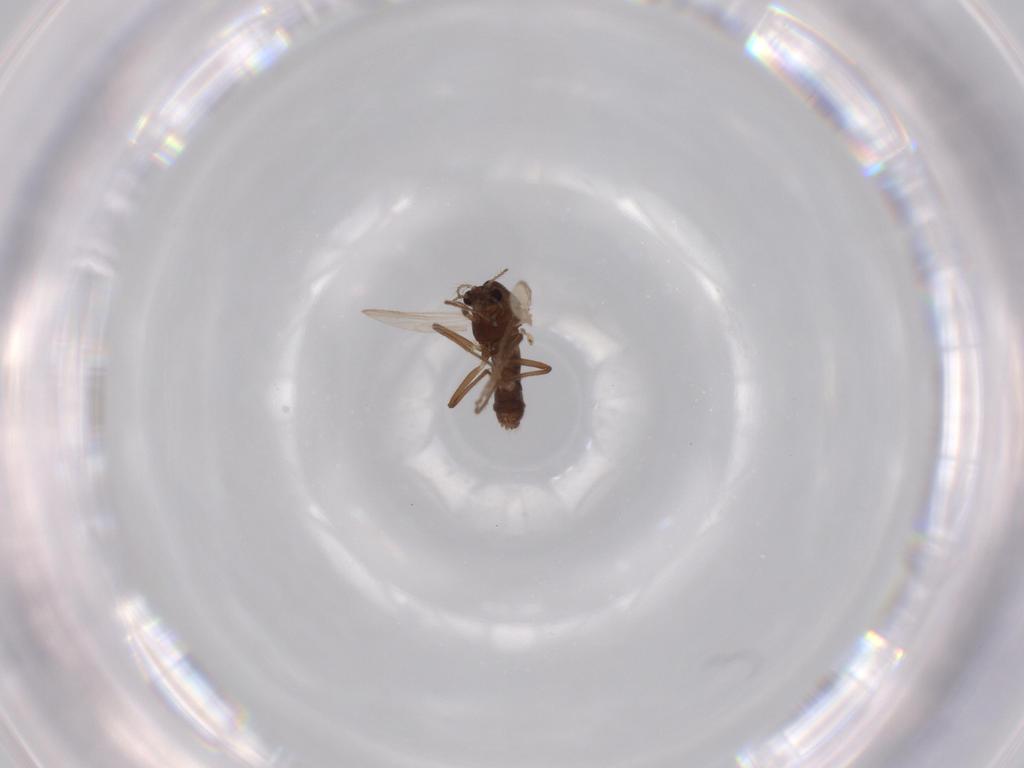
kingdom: Animalia
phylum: Arthropoda
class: Insecta
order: Diptera
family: Chironomidae
